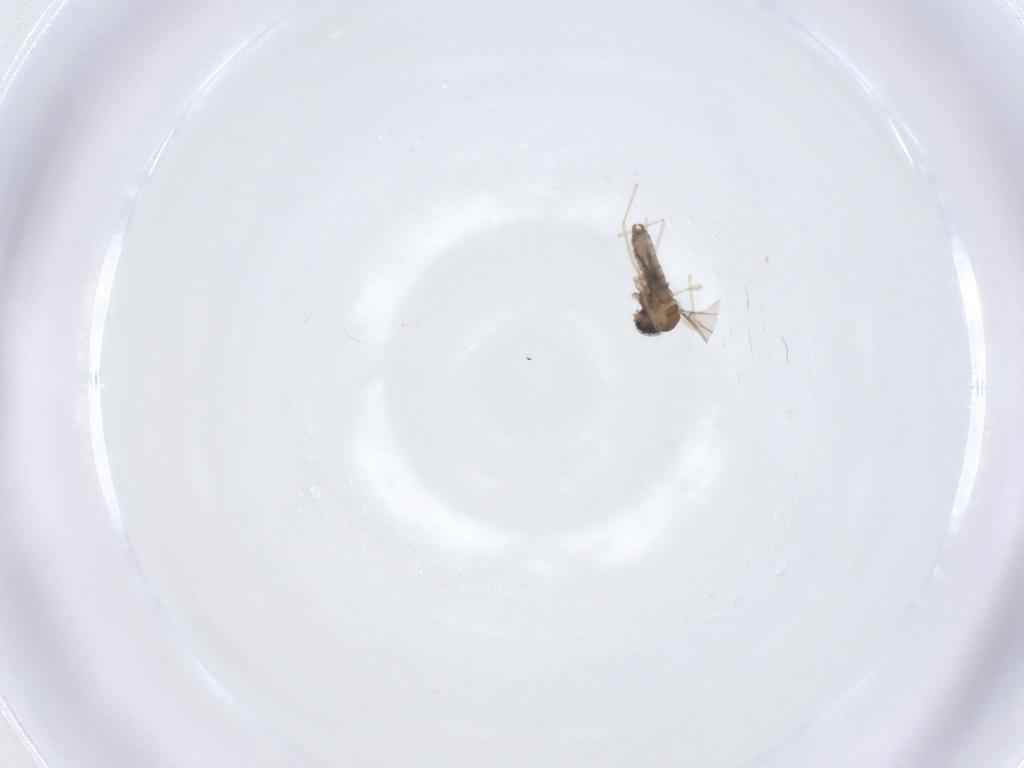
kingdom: Animalia
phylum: Arthropoda
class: Insecta
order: Diptera
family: Cecidomyiidae
